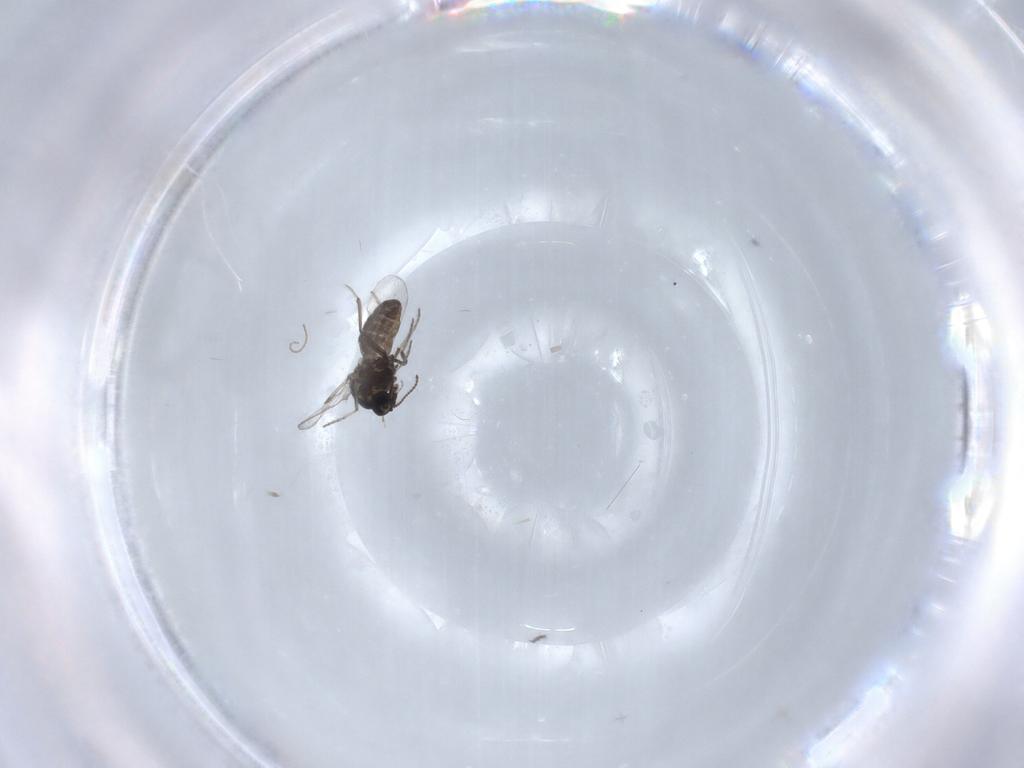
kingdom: Animalia
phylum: Arthropoda
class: Insecta
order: Diptera
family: Ceratopogonidae
